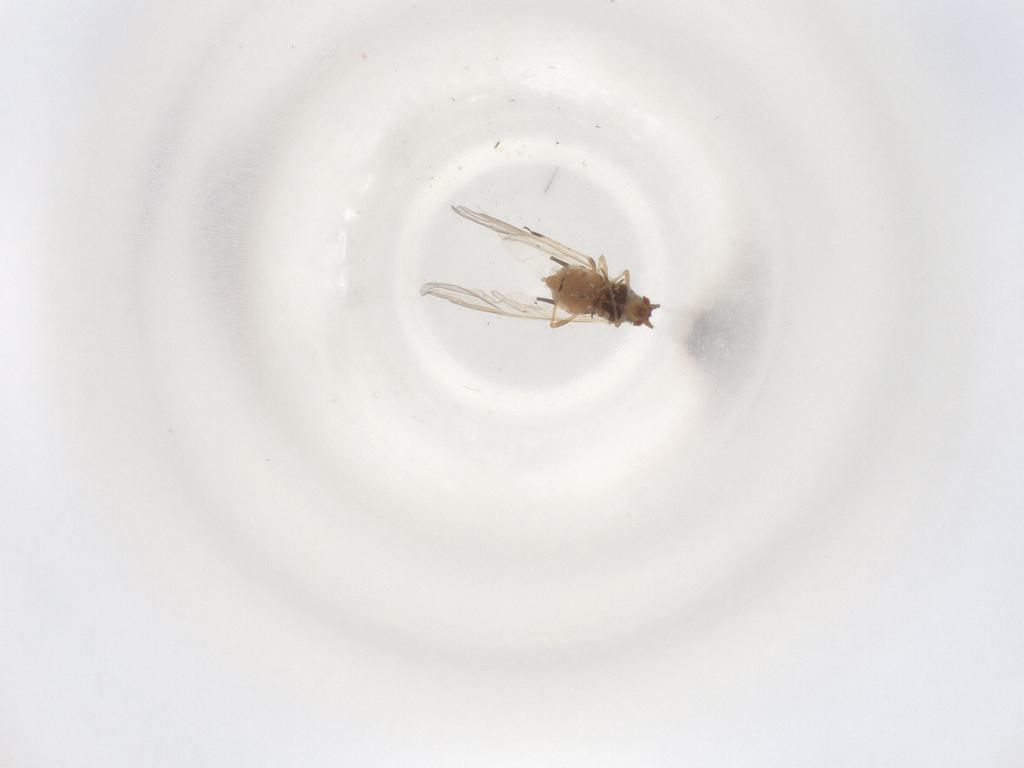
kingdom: Animalia
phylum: Arthropoda
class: Insecta
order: Hemiptera
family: Aphididae
